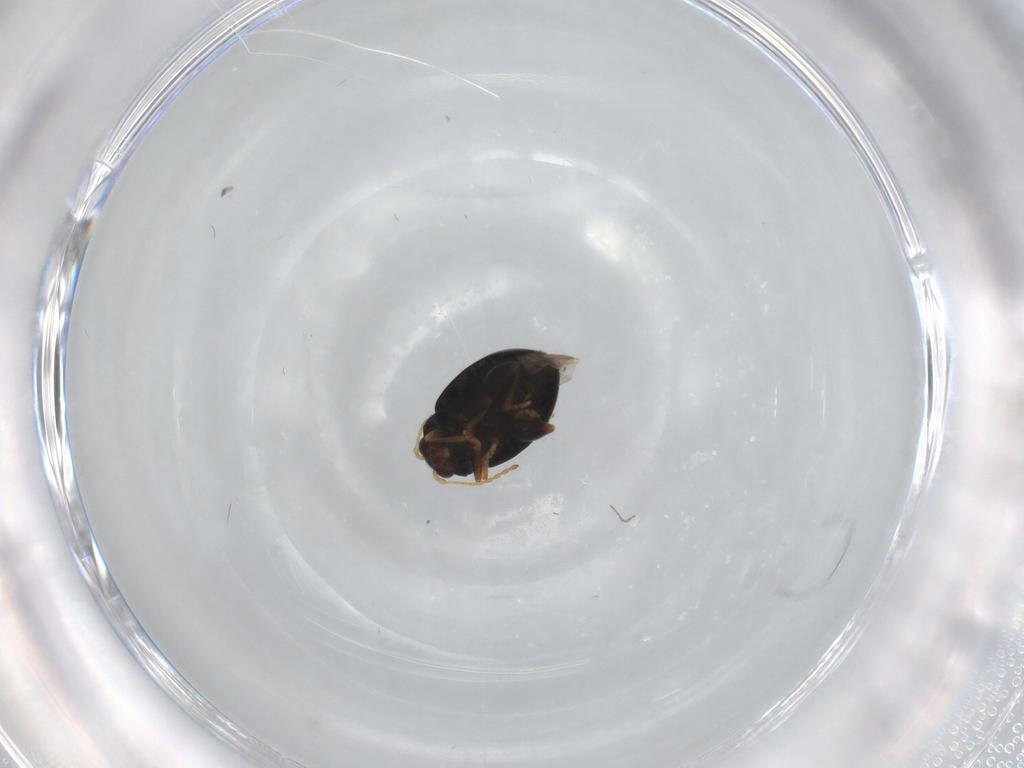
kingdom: Animalia
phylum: Arthropoda
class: Insecta
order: Coleoptera
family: Chrysomelidae
